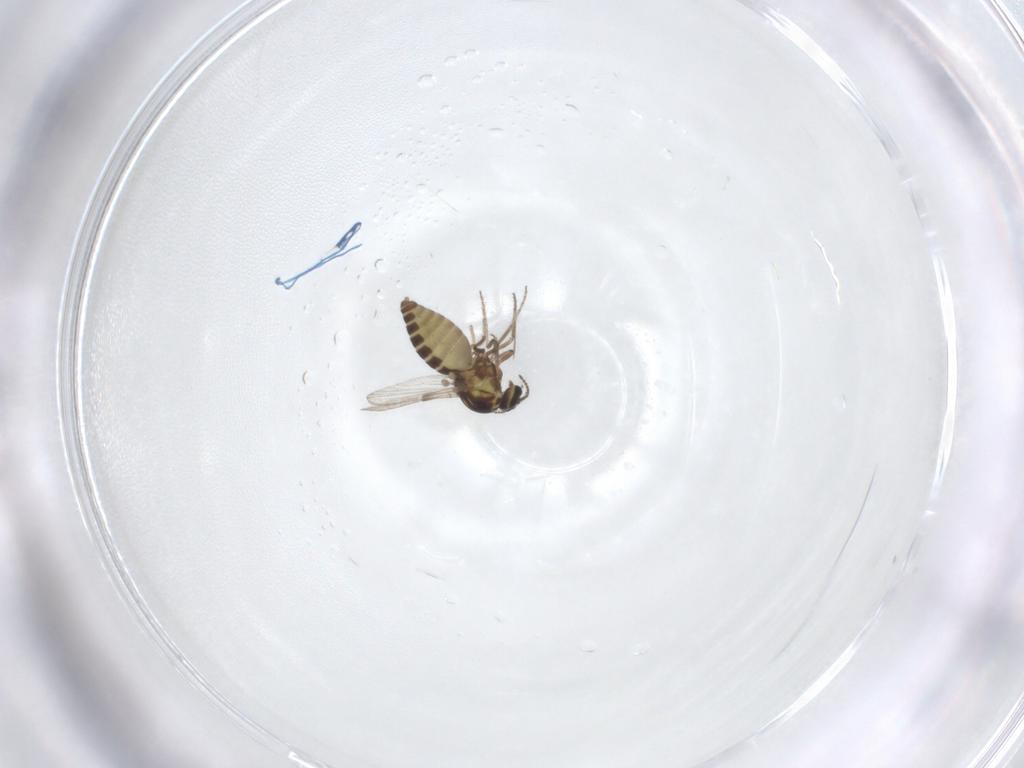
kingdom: Animalia
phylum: Arthropoda
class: Insecta
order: Diptera
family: Ceratopogonidae
